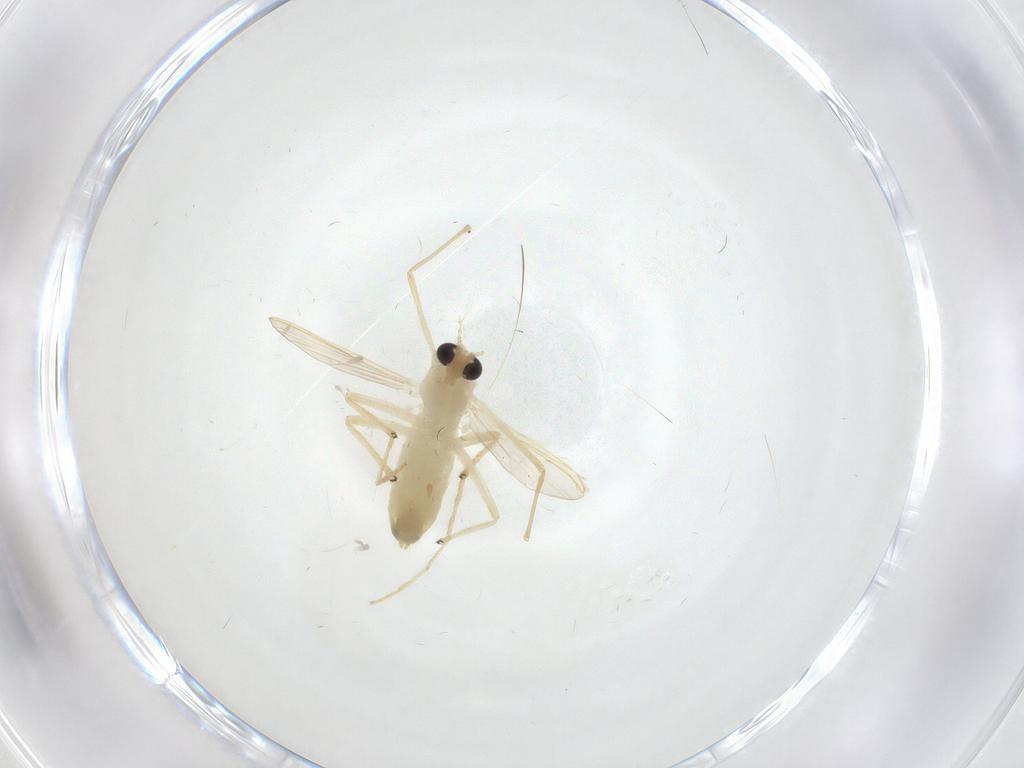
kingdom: Animalia
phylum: Arthropoda
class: Insecta
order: Diptera
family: Chironomidae
